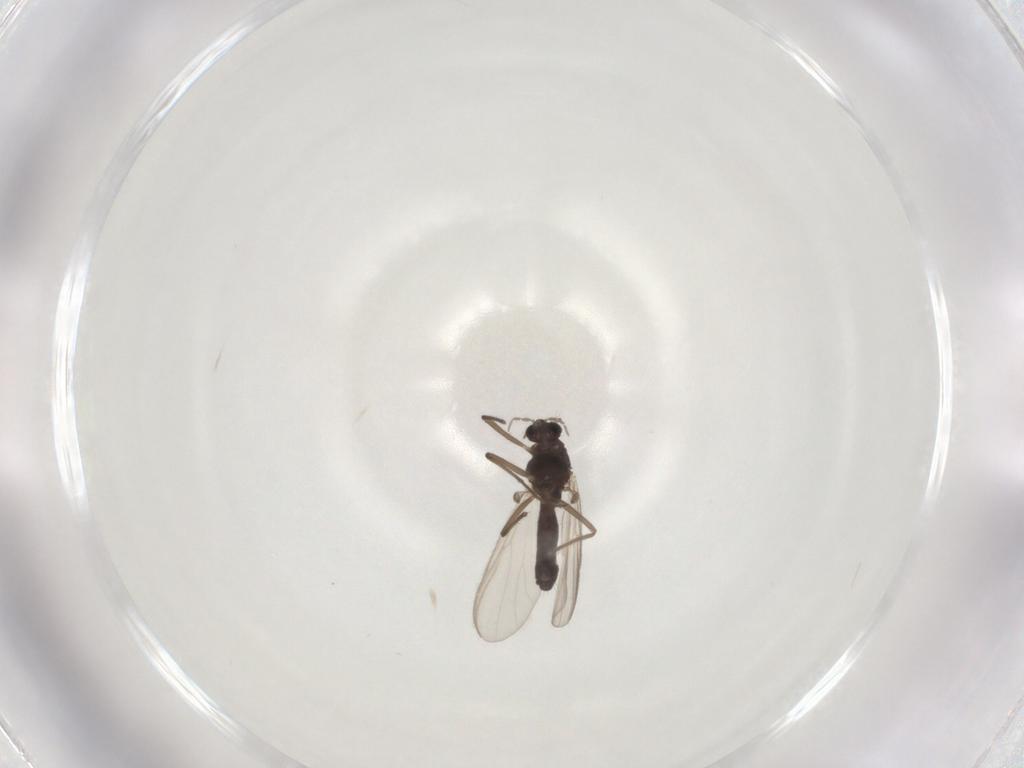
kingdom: Animalia
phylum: Arthropoda
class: Insecta
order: Diptera
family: Chironomidae
